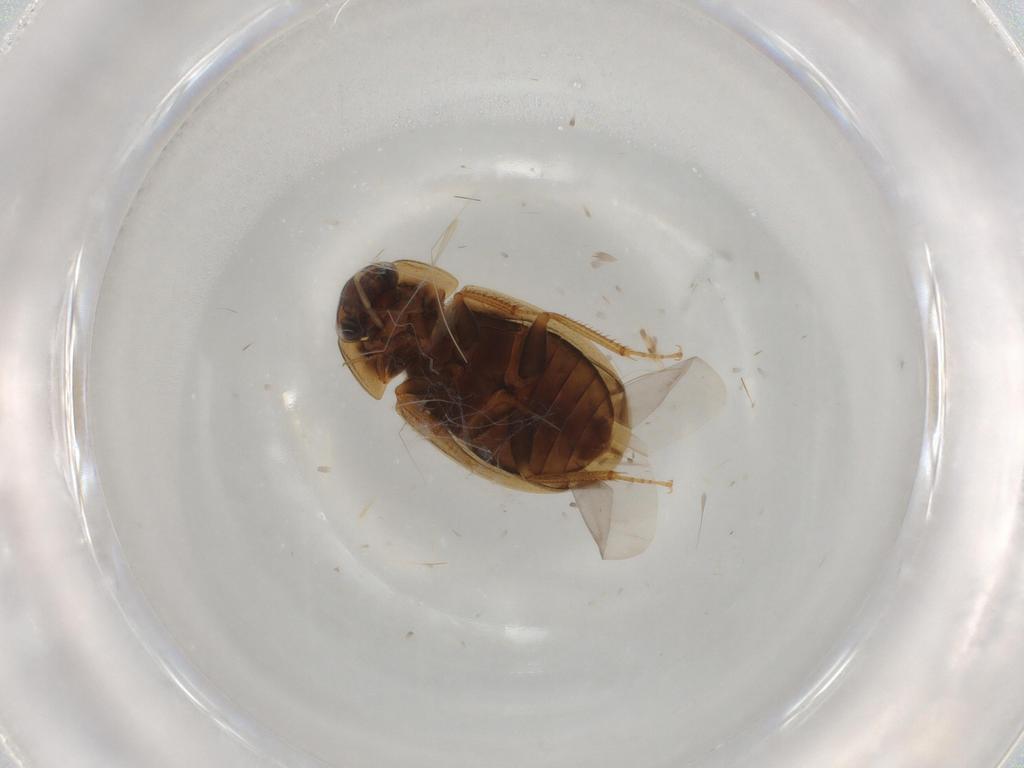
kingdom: Animalia
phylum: Arthropoda
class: Insecta
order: Coleoptera
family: Hydrophilidae
